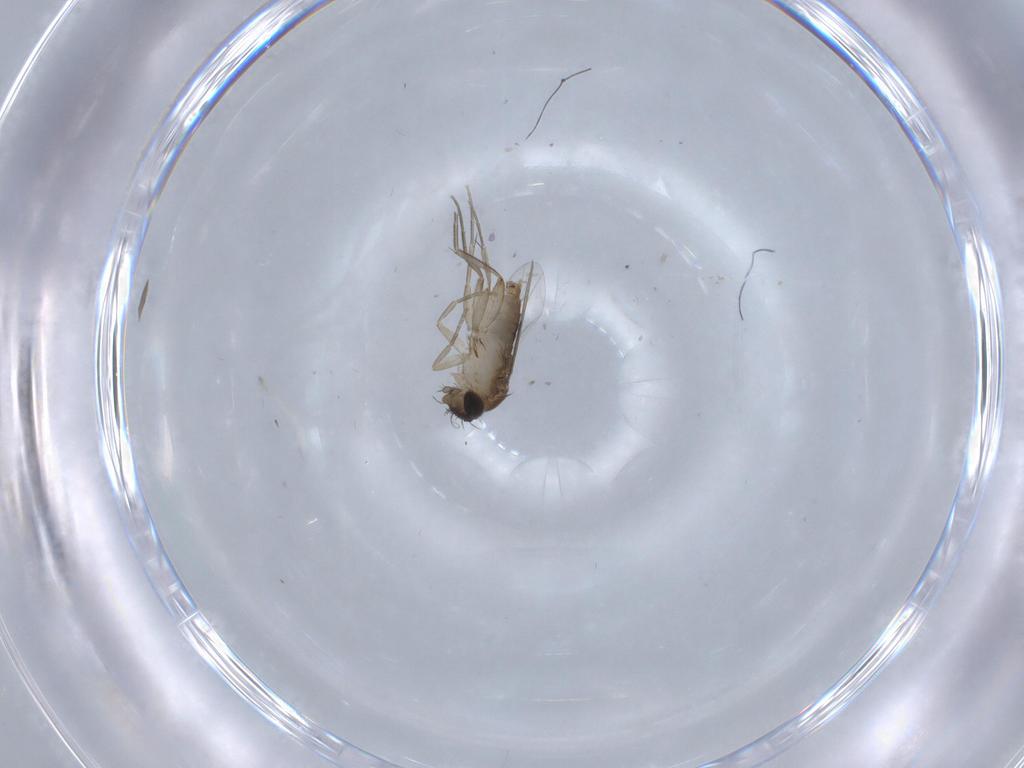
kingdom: Animalia
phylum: Arthropoda
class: Insecta
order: Diptera
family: Phoridae
